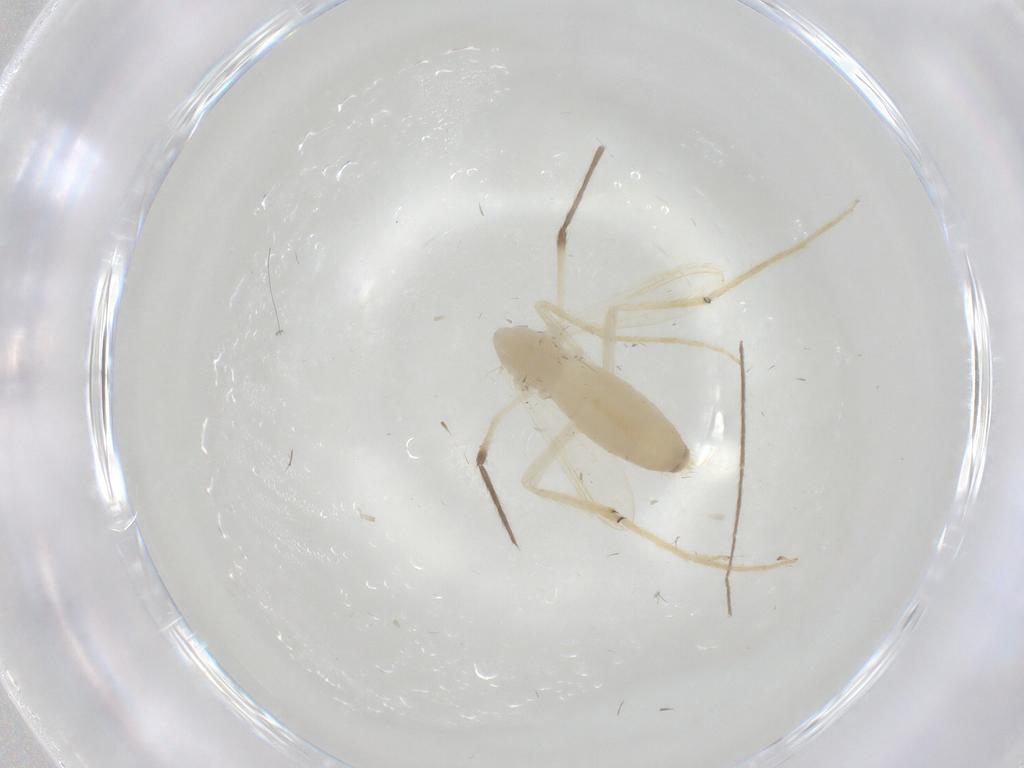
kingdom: Animalia
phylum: Arthropoda
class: Insecta
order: Diptera
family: Chironomidae
